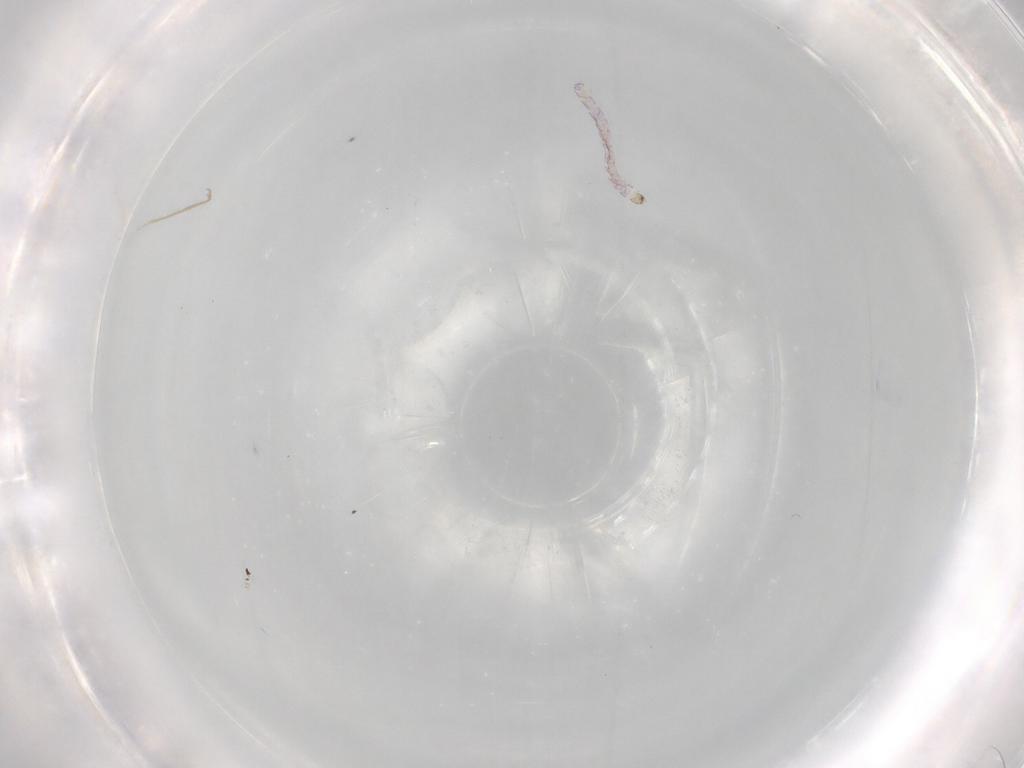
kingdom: Animalia
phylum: Arthropoda
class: Insecta
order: Diptera
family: Chironomidae
